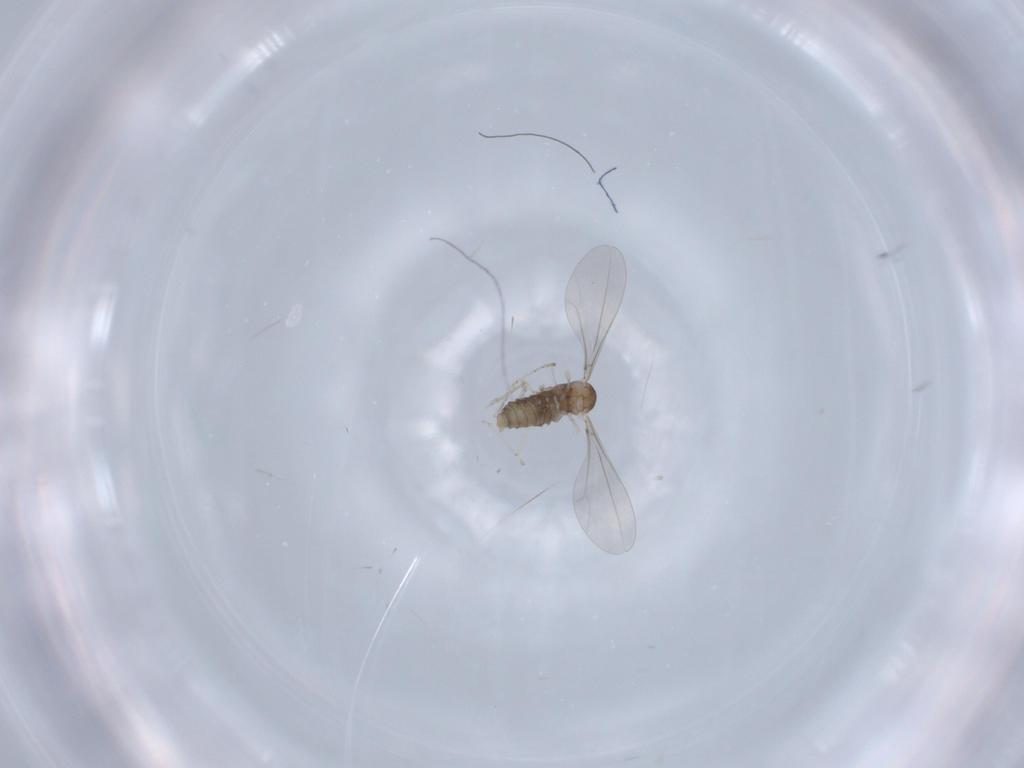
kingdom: Animalia
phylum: Arthropoda
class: Insecta
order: Diptera
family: Cecidomyiidae
